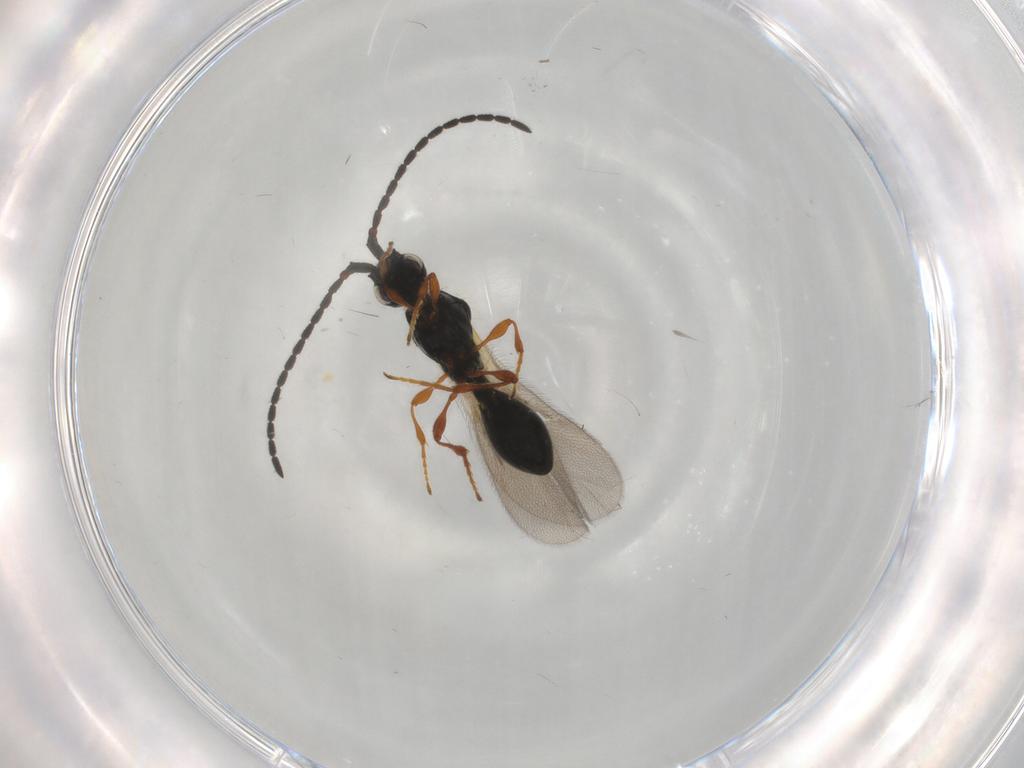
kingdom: Animalia
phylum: Arthropoda
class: Insecta
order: Hymenoptera
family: Diapriidae
